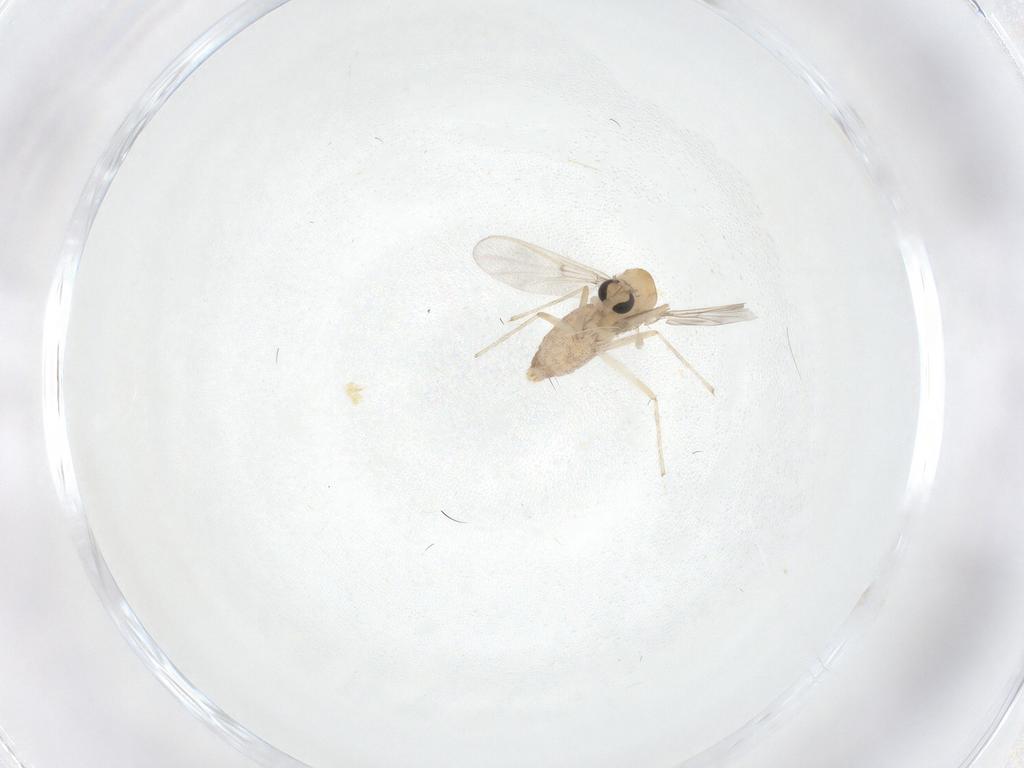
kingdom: Animalia
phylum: Arthropoda
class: Insecta
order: Diptera
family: Chironomidae
